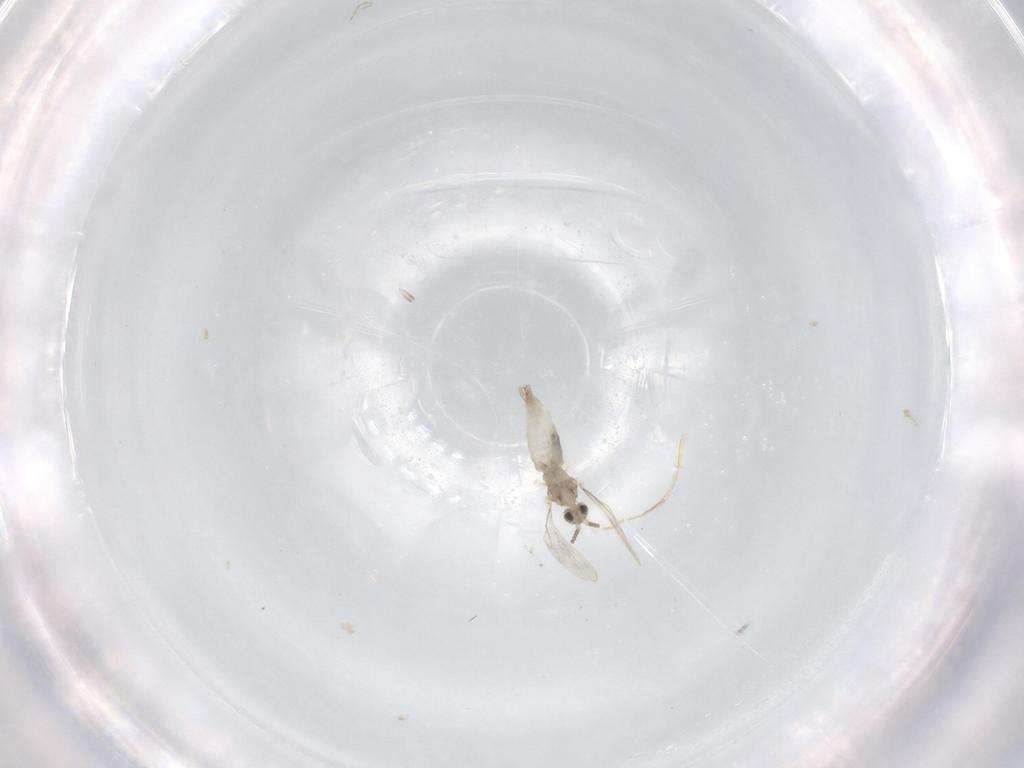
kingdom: Animalia
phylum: Arthropoda
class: Insecta
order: Diptera
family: Cecidomyiidae
